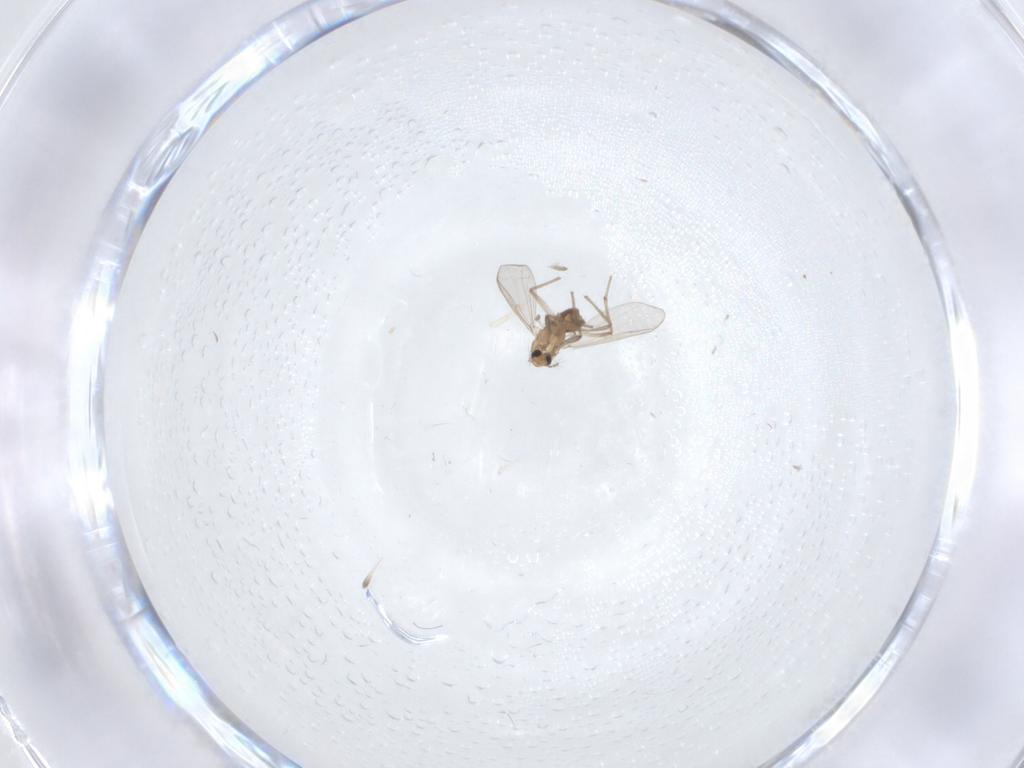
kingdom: Animalia
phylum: Arthropoda
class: Insecta
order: Diptera
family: Chironomidae
